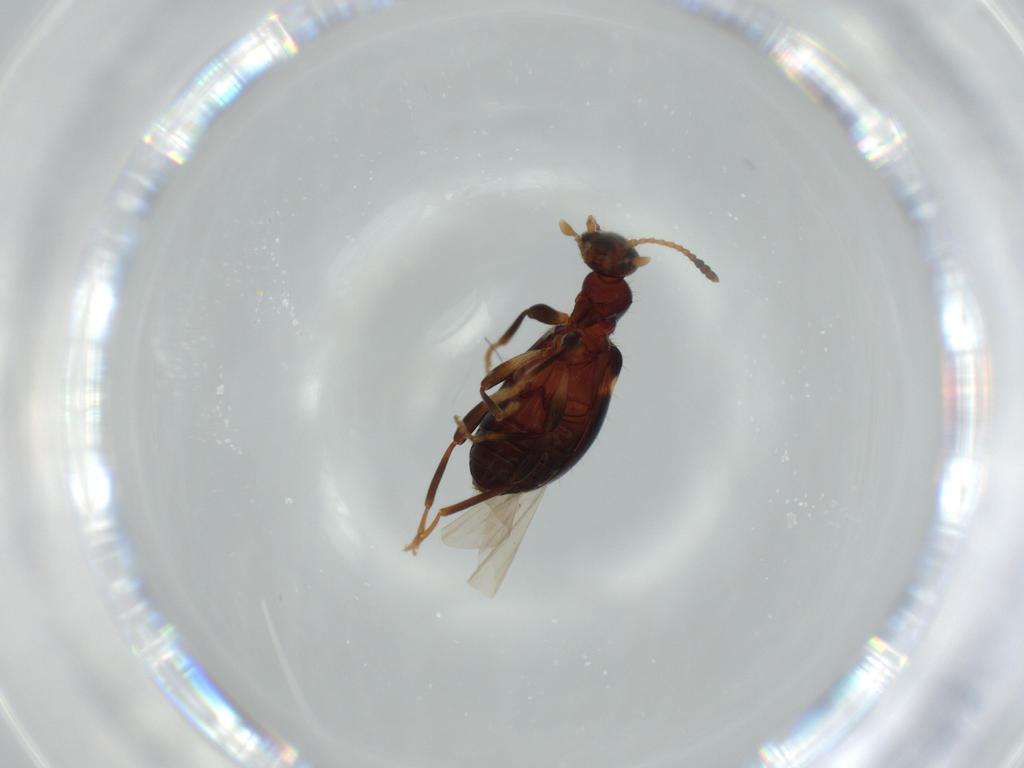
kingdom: Animalia
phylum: Arthropoda
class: Insecta
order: Coleoptera
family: Anthicidae
